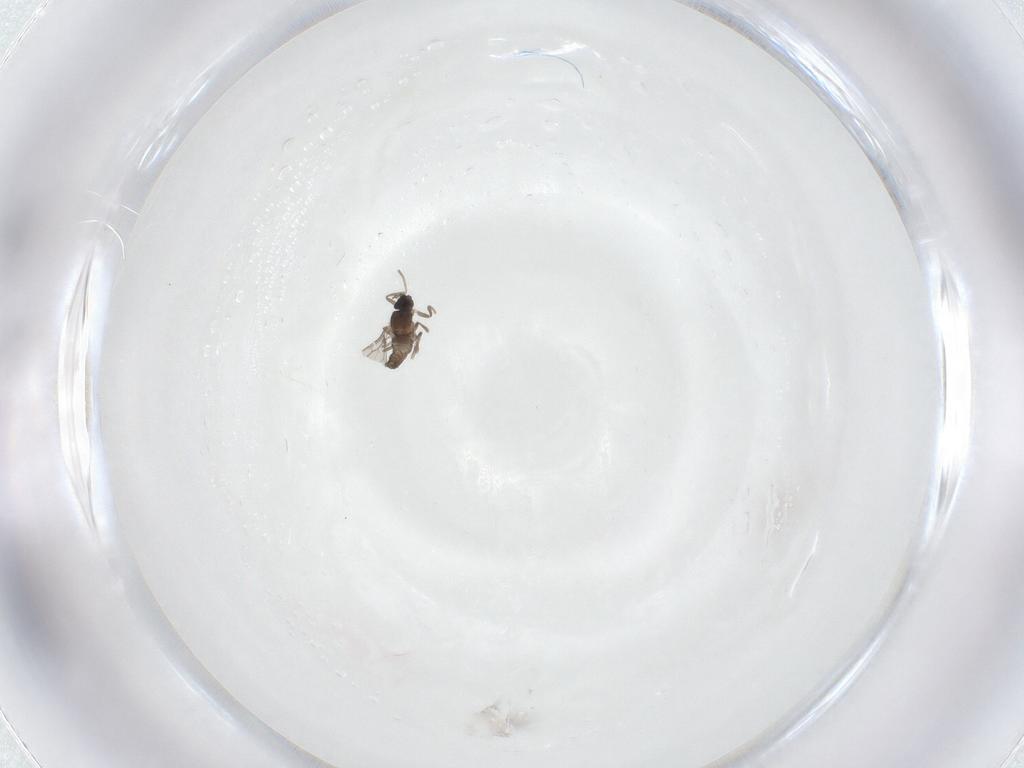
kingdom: Animalia
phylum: Arthropoda
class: Insecta
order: Diptera
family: Cecidomyiidae
